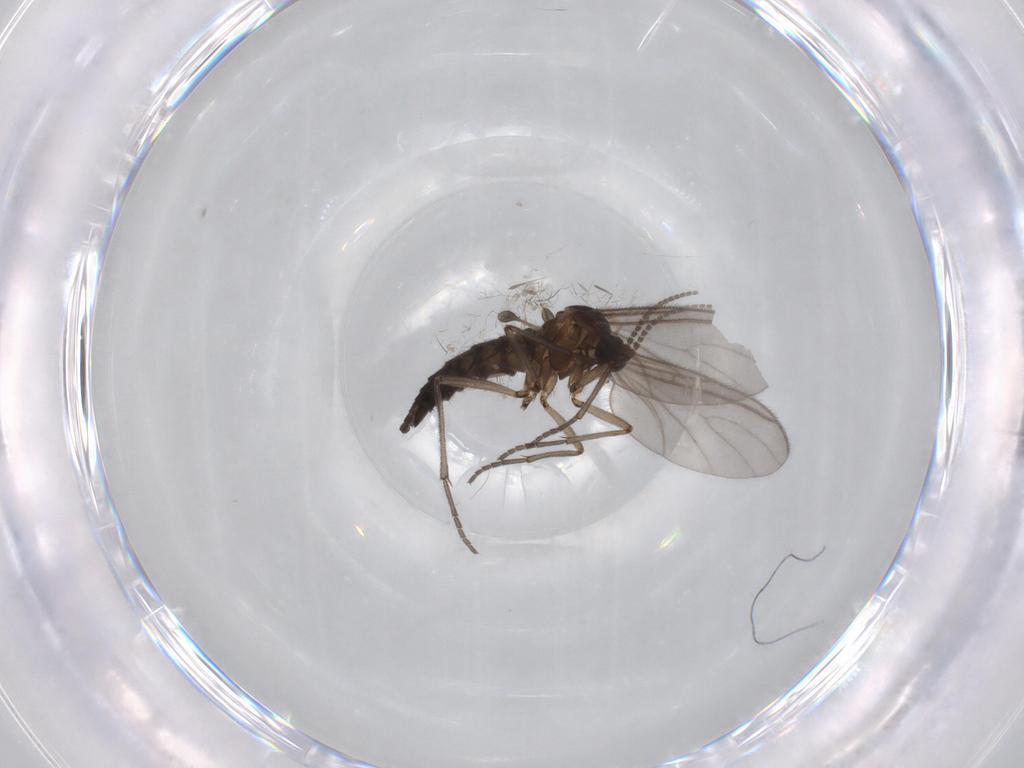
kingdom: Animalia
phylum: Arthropoda
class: Insecta
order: Diptera
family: Sciaridae
